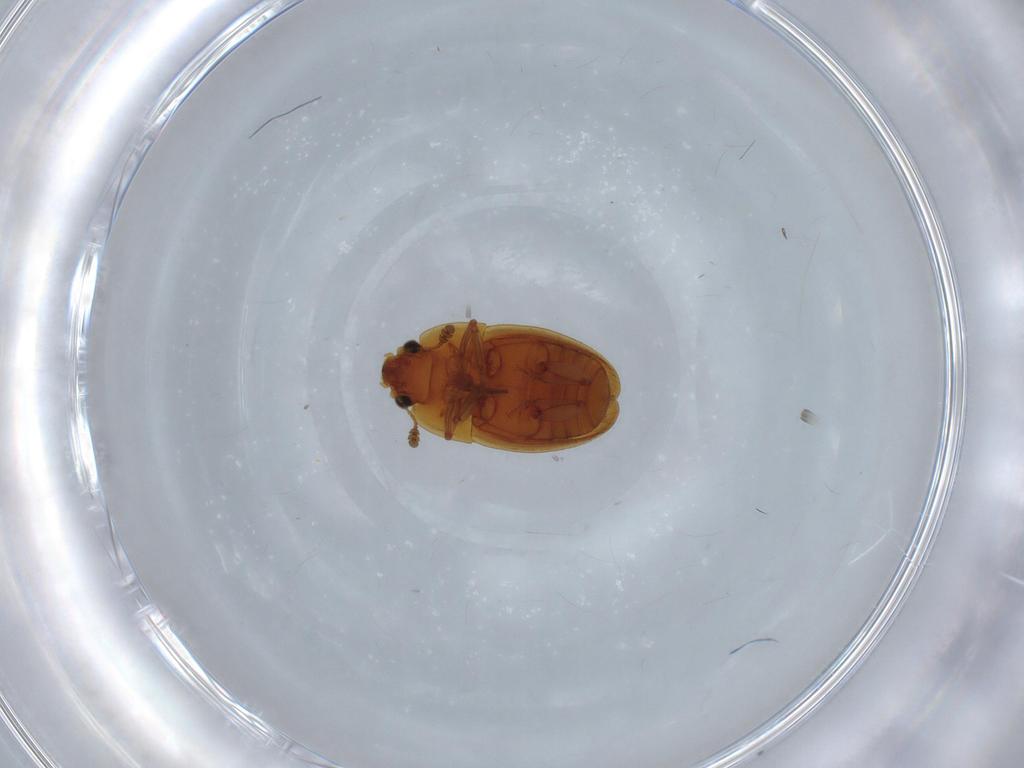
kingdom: Animalia
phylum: Arthropoda
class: Insecta
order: Coleoptera
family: Nitidulidae
